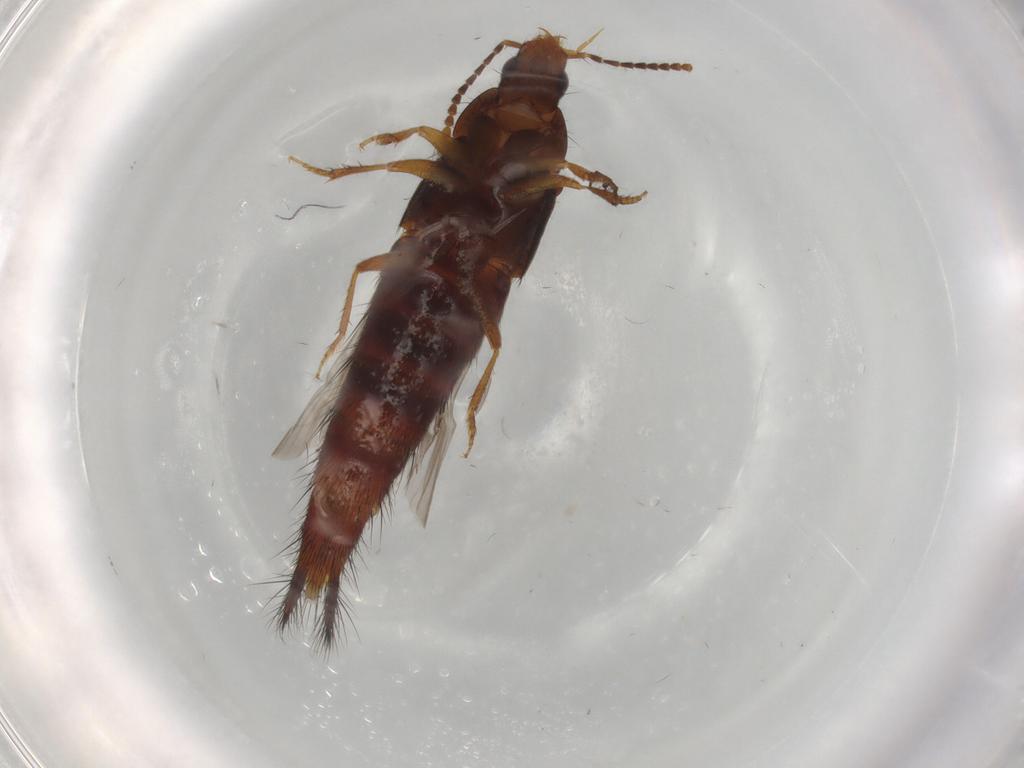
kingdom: Animalia
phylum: Arthropoda
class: Insecta
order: Coleoptera
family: Staphylinidae
